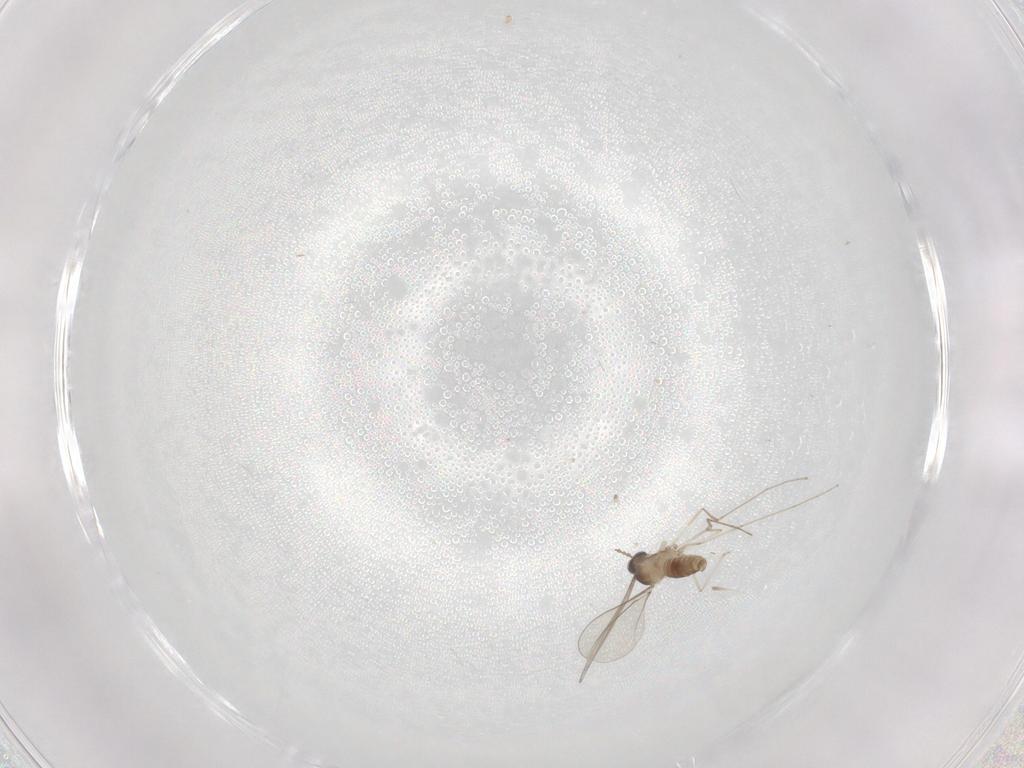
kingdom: Animalia
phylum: Arthropoda
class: Insecta
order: Diptera
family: Cecidomyiidae
